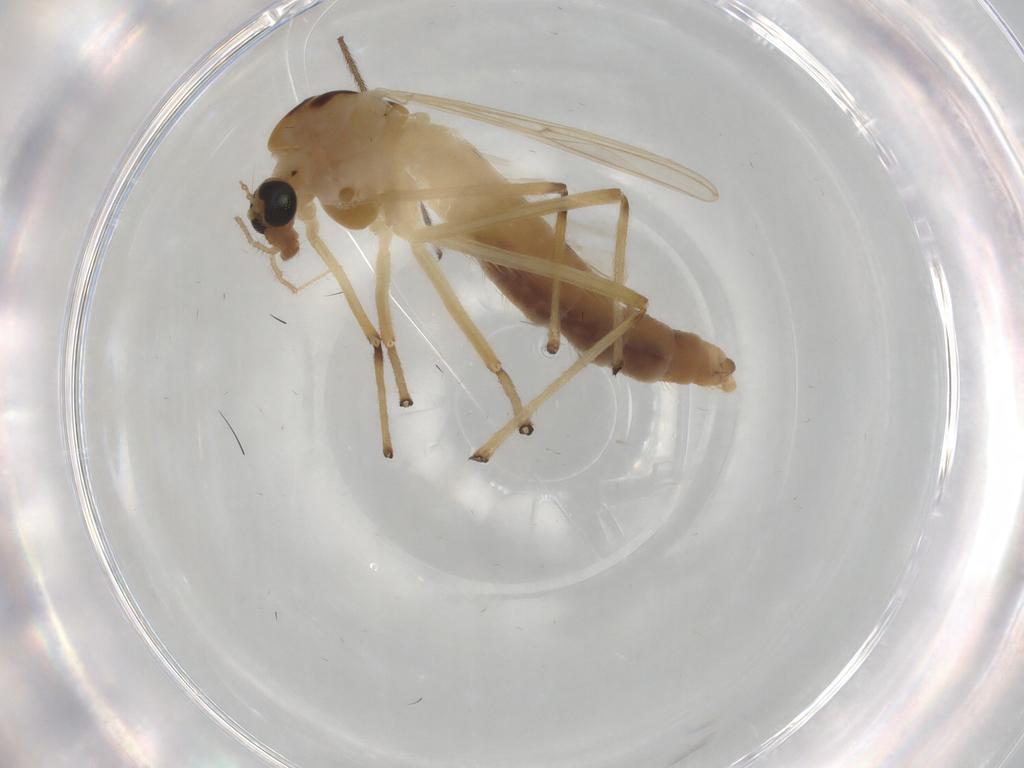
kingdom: Animalia
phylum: Arthropoda
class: Insecta
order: Diptera
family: Chironomidae
